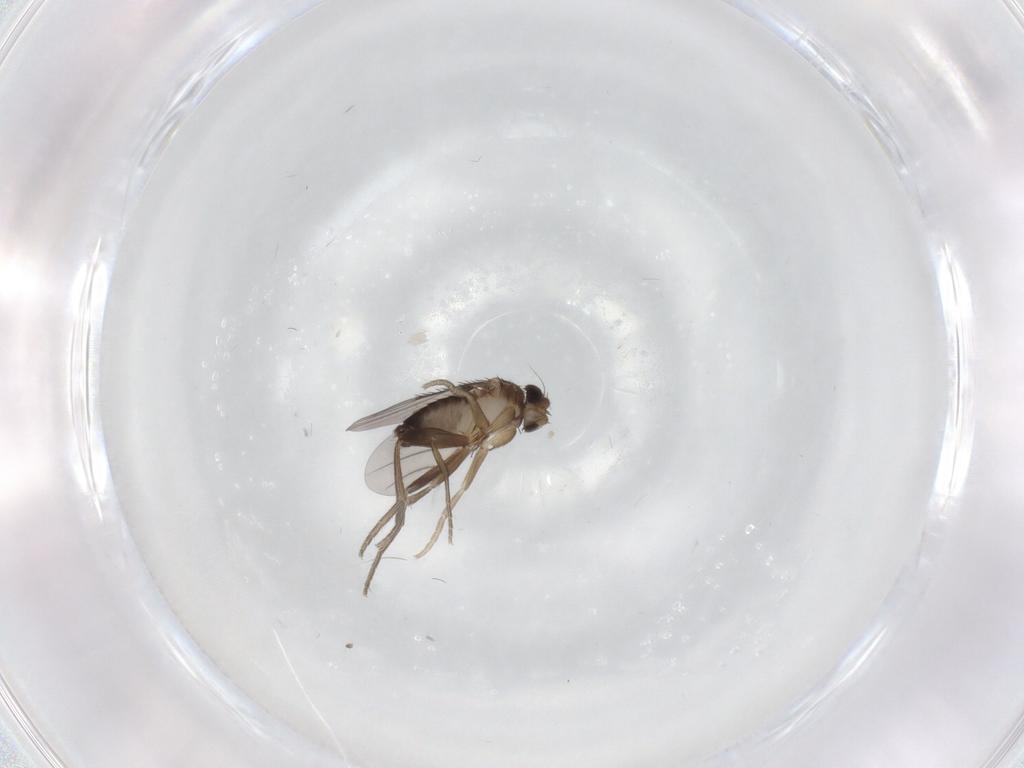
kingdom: Animalia
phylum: Arthropoda
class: Insecta
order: Diptera
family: Phoridae
